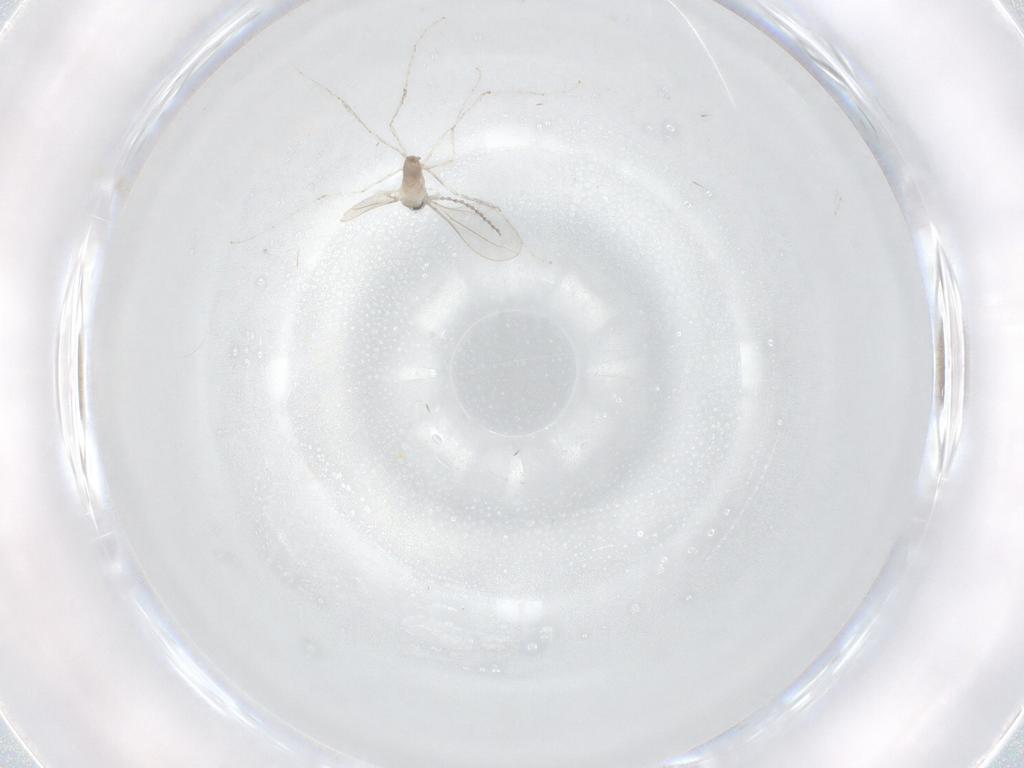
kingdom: Animalia
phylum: Arthropoda
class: Insecta
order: Diptera
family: Cecidomyiidae
